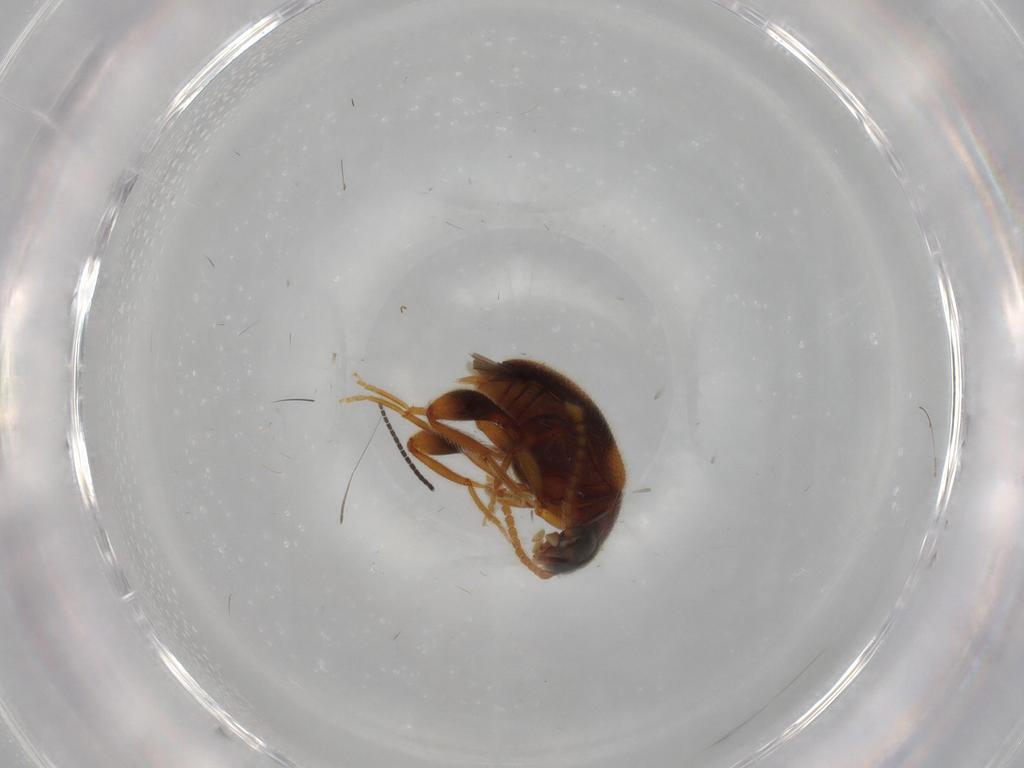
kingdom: Animalia
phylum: Arthropoda
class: Insecta
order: Coleoptera
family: Aderidae
